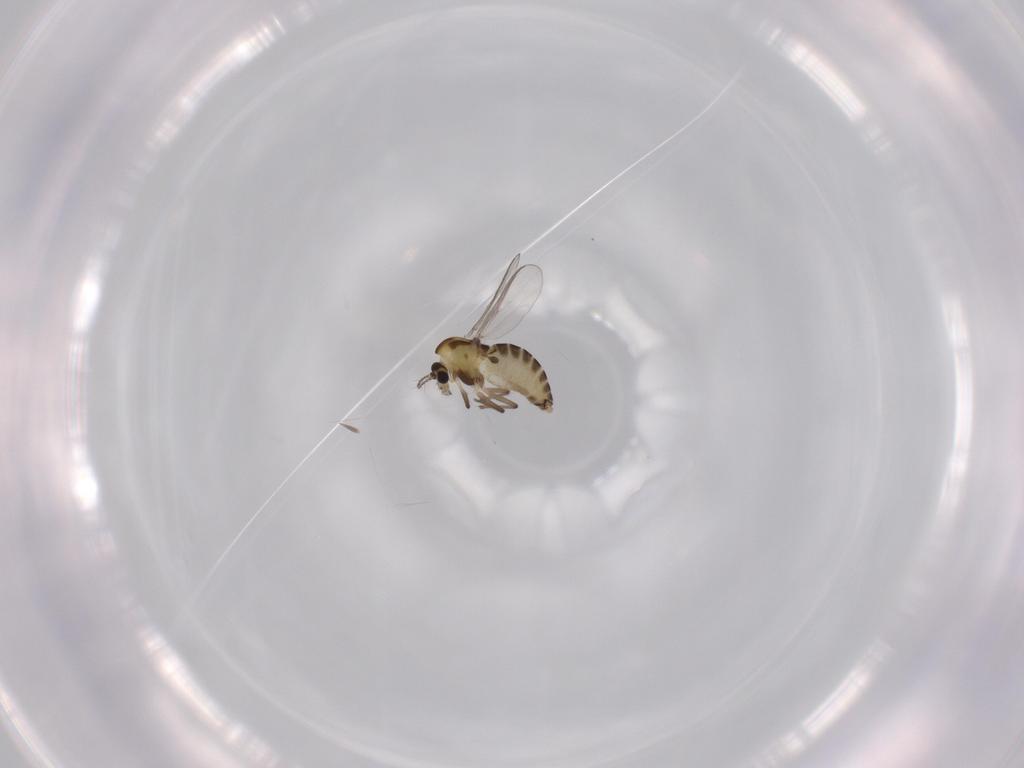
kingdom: Animalia
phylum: Arthropoda
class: Insecta
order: Diptera
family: Chironomidae
